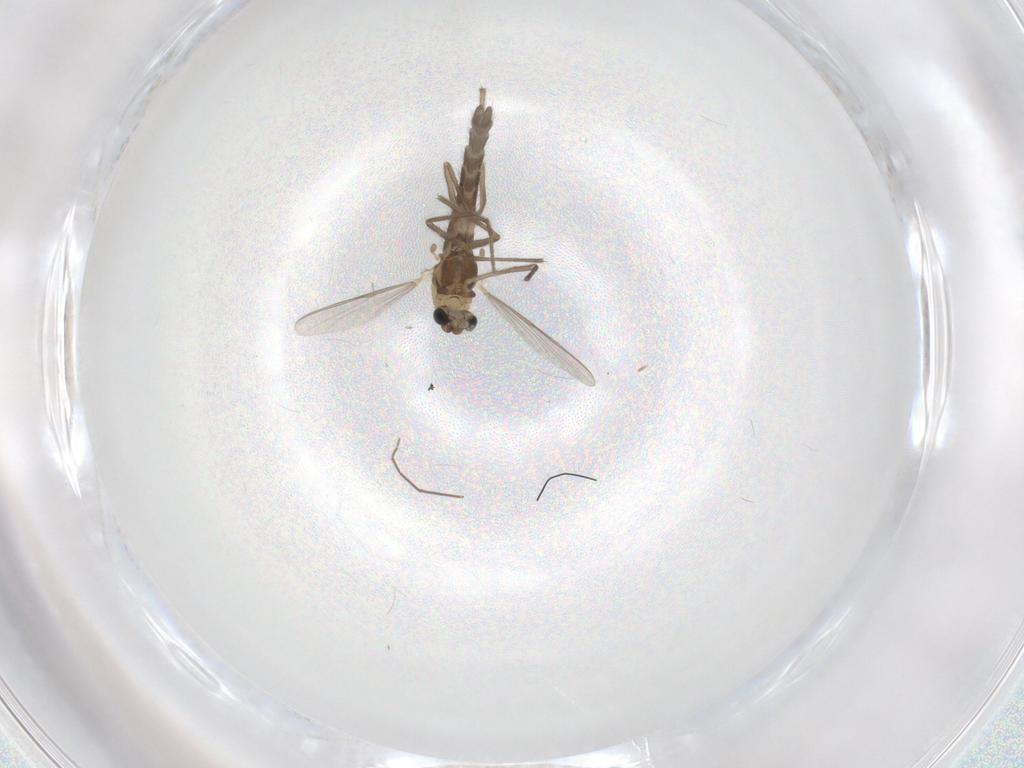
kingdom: Animalia
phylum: Arthropoda
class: Insecta
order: Diptera
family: Chironomidae
